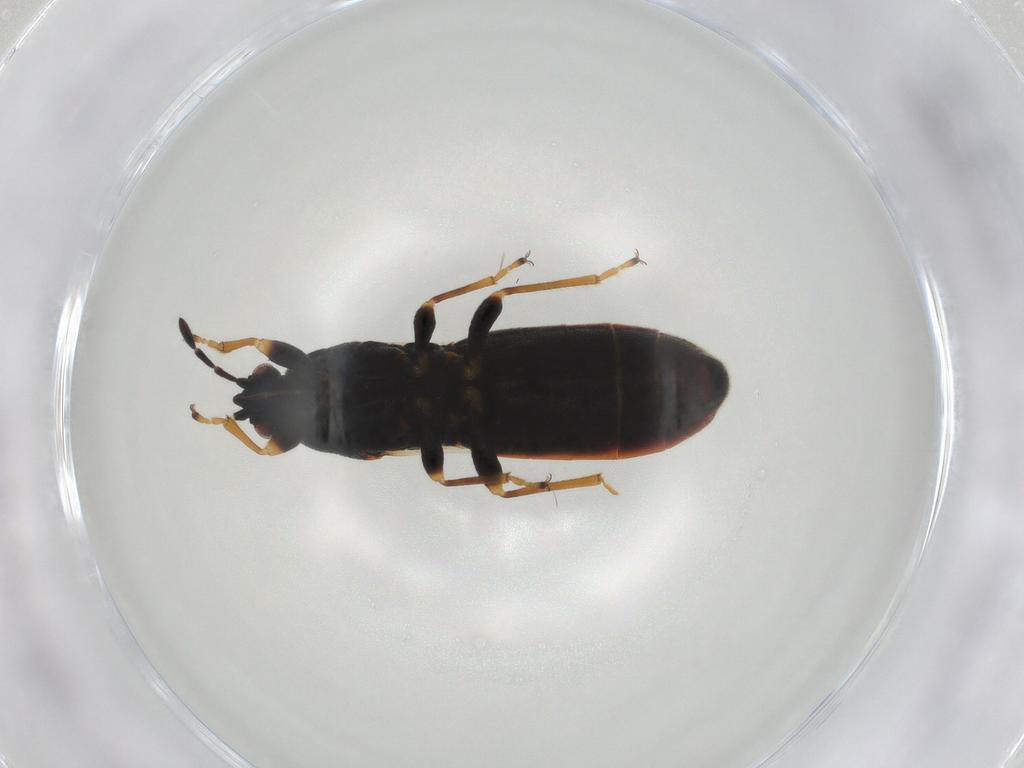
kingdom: Animalia
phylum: Arthropoda
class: Insecta
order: Hemiptera
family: Blissidae
